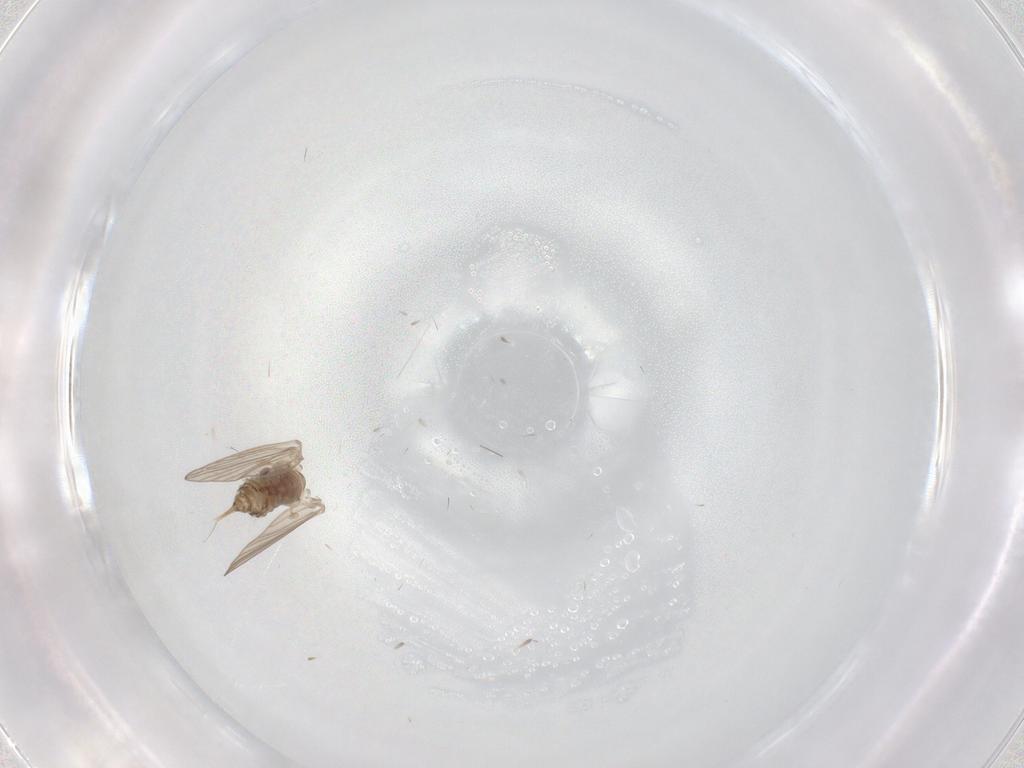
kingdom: Animalia
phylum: Arthropoda
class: Insecta
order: Diptera
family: Psychodidae
